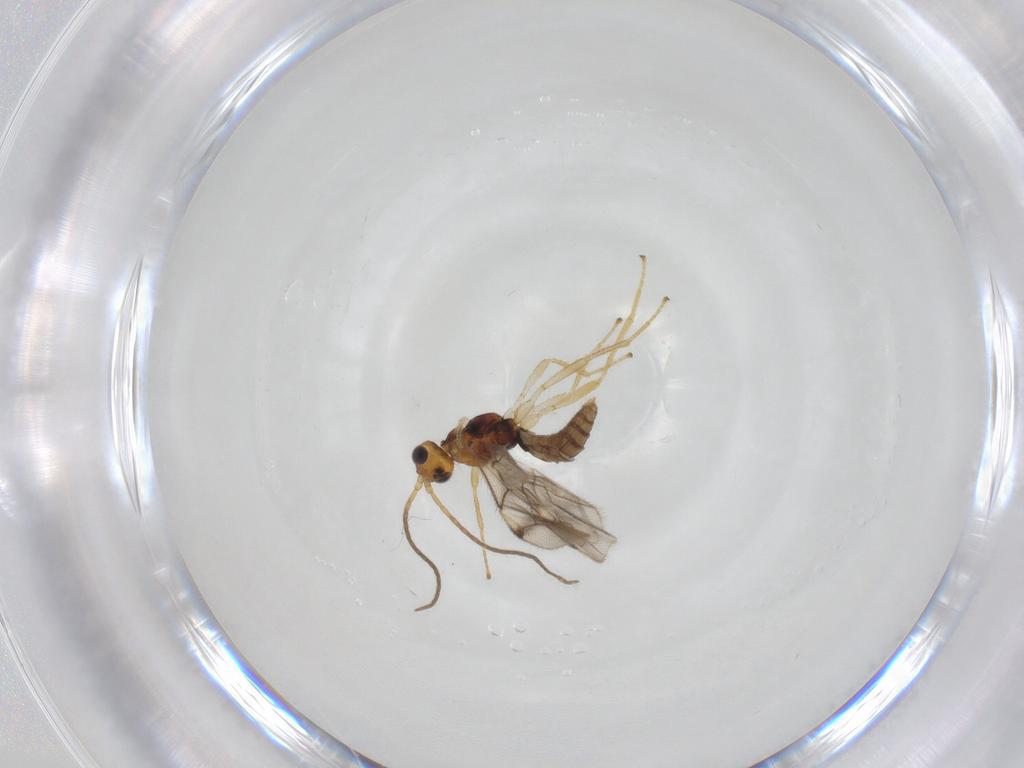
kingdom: Animalia
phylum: Arthropoda
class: Insecta
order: Hymenoptera
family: Braconidae
